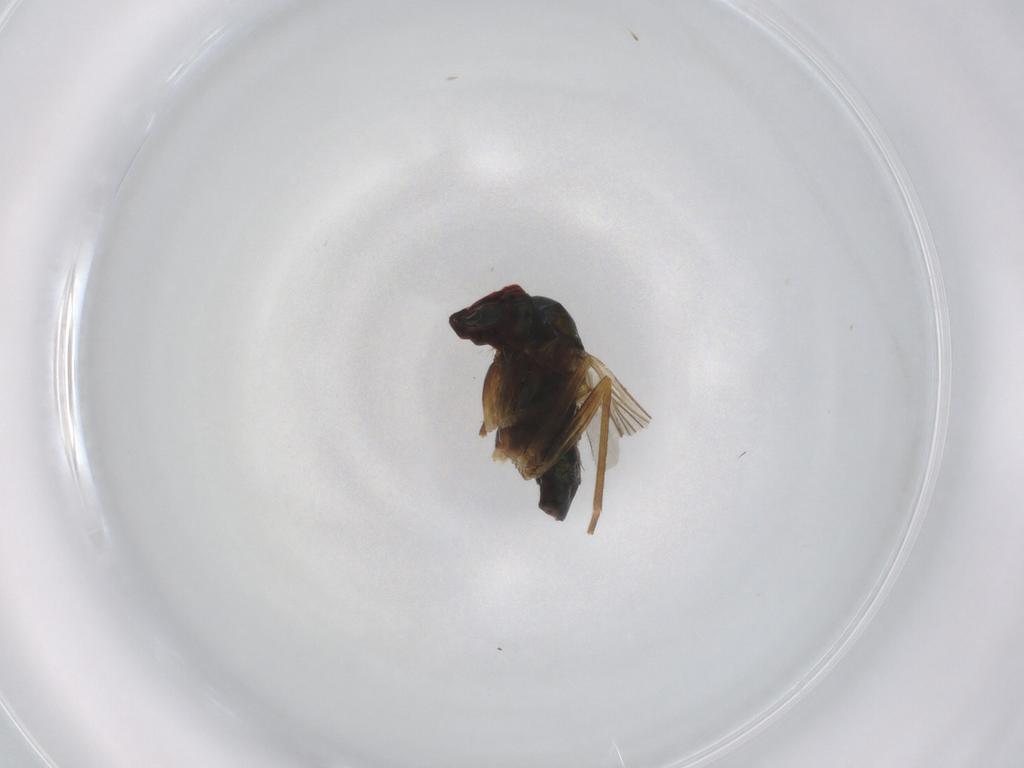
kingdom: Animalia
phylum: Arthropoda
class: Insecta
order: Diptera
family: Dolichopodidae
